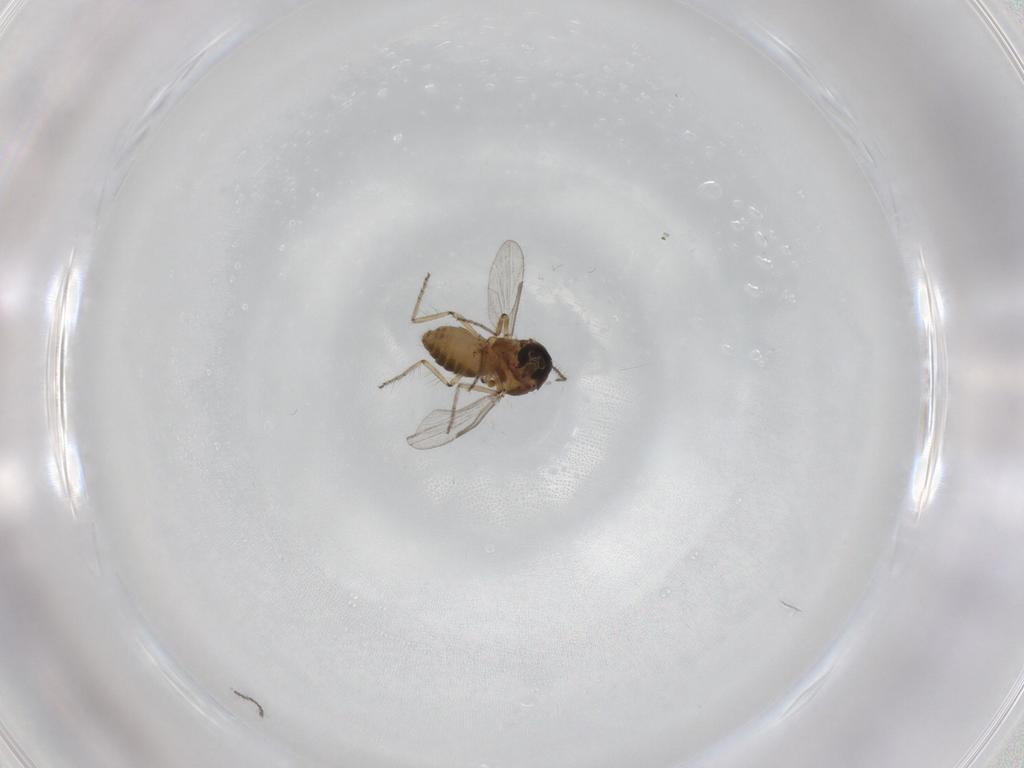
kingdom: Animalia
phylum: Arthropoda
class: Insecta
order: Diptera
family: Ceratopogonidae
